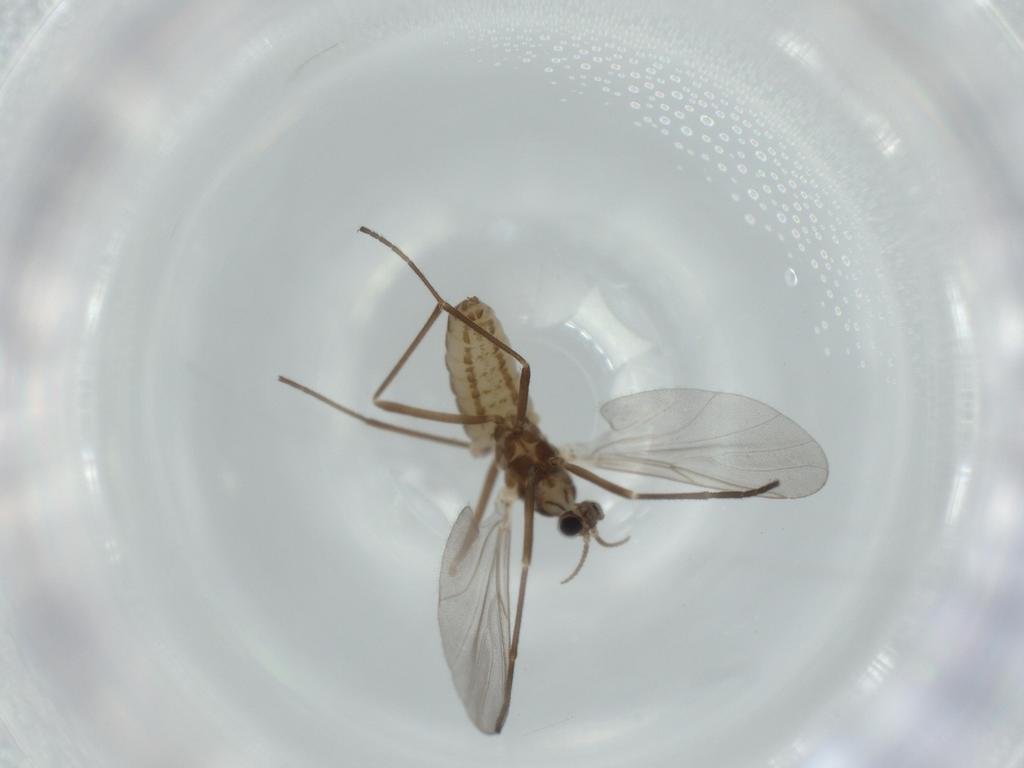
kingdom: Animalia
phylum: Arthropoda
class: Insecta
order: Diptera
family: Cecidomyiidae
